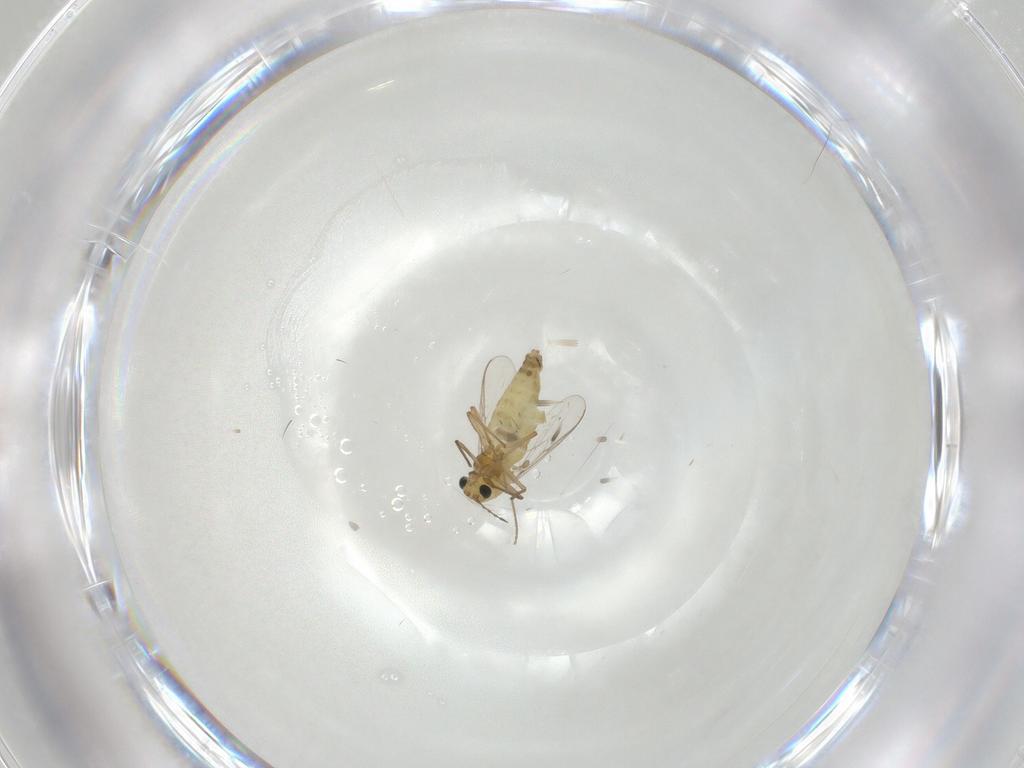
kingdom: Animalia
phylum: Arthropoda
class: Insecta
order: Diptera
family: Chironomidae
